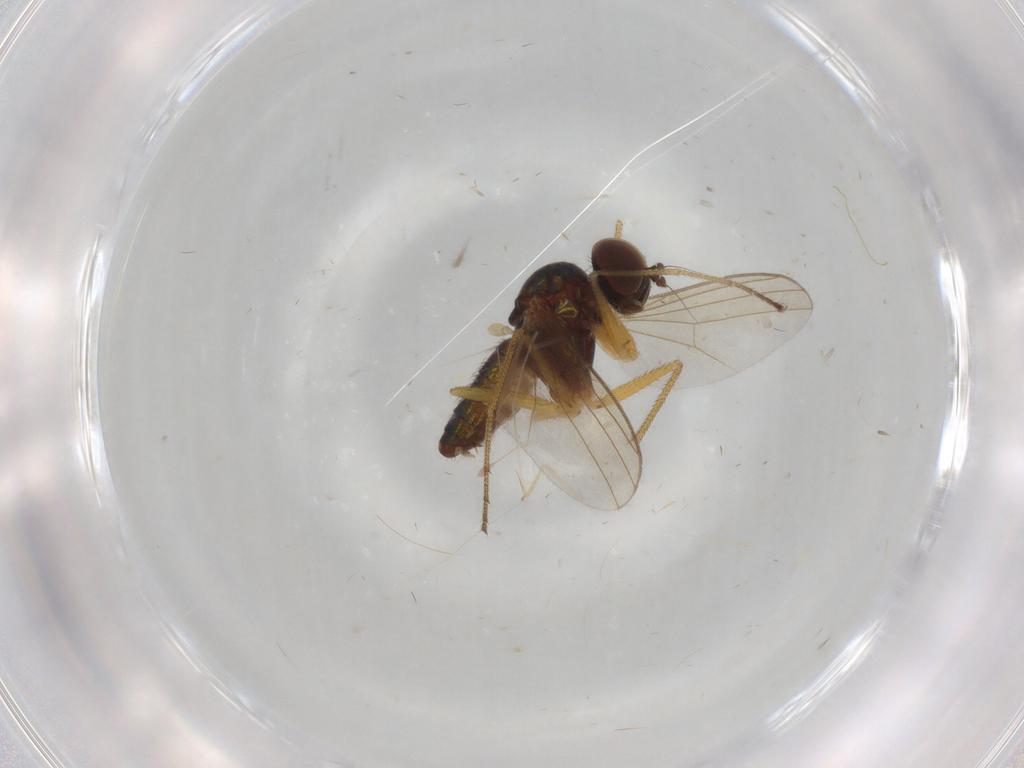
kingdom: Animalia
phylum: Arthropoda
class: Insecta
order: Diptera
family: Dolichopodidae
